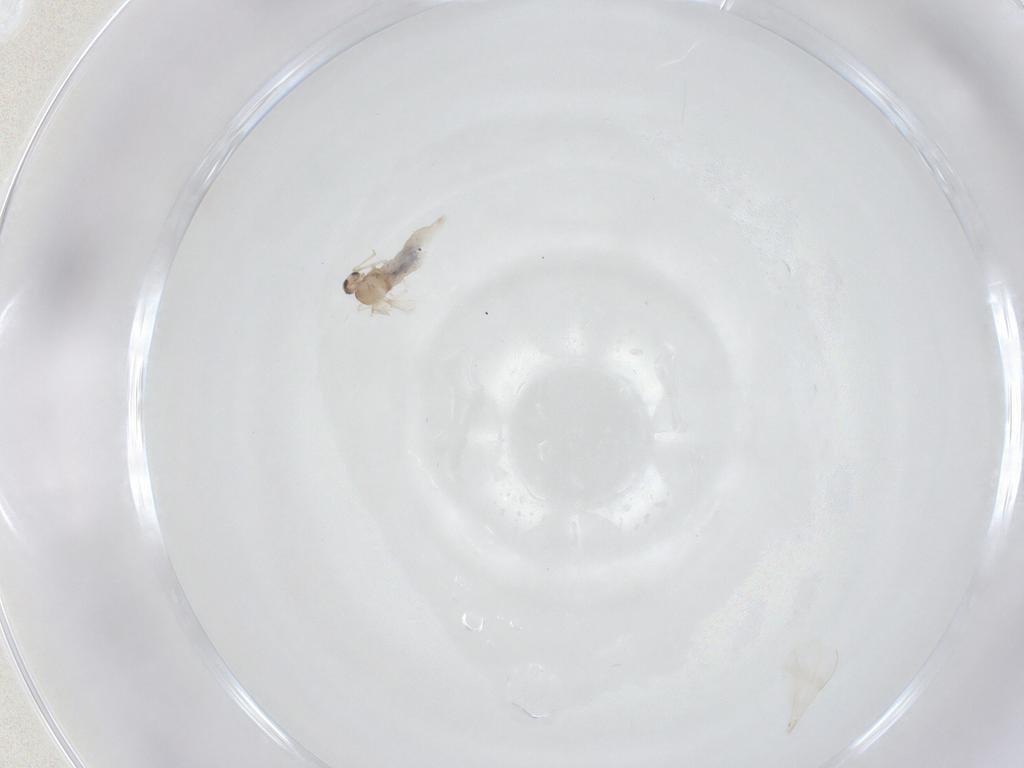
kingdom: Animalia
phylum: Arthropoda
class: Insecta
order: Diptera
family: Cecidomyiidae
